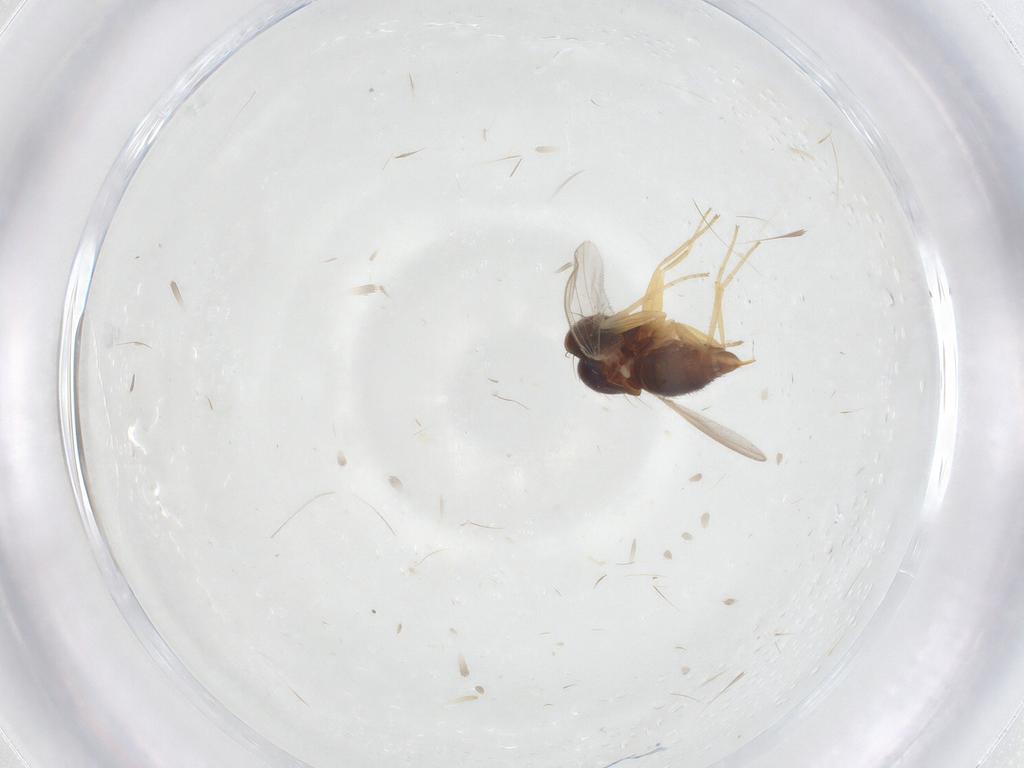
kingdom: Animalia
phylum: Arthropoda
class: Insecta
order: Diptera
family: Dolichopodidae
